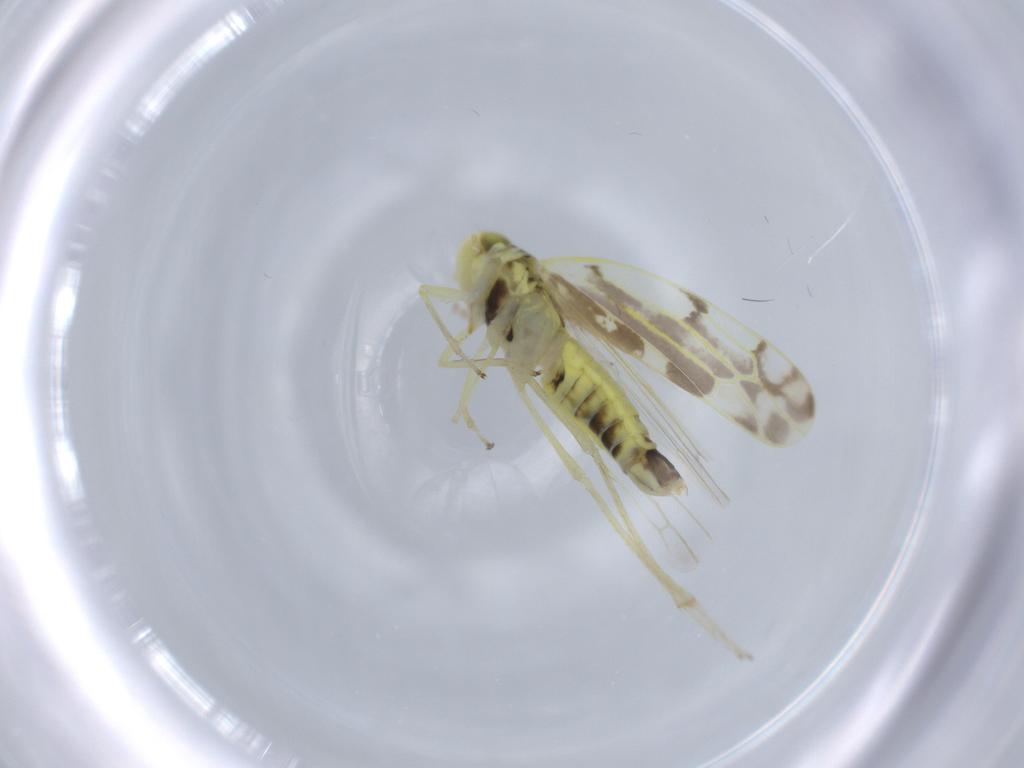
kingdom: Animalia
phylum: Arthropoda
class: Insecta
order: Hemiptera
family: Cicadellidae
